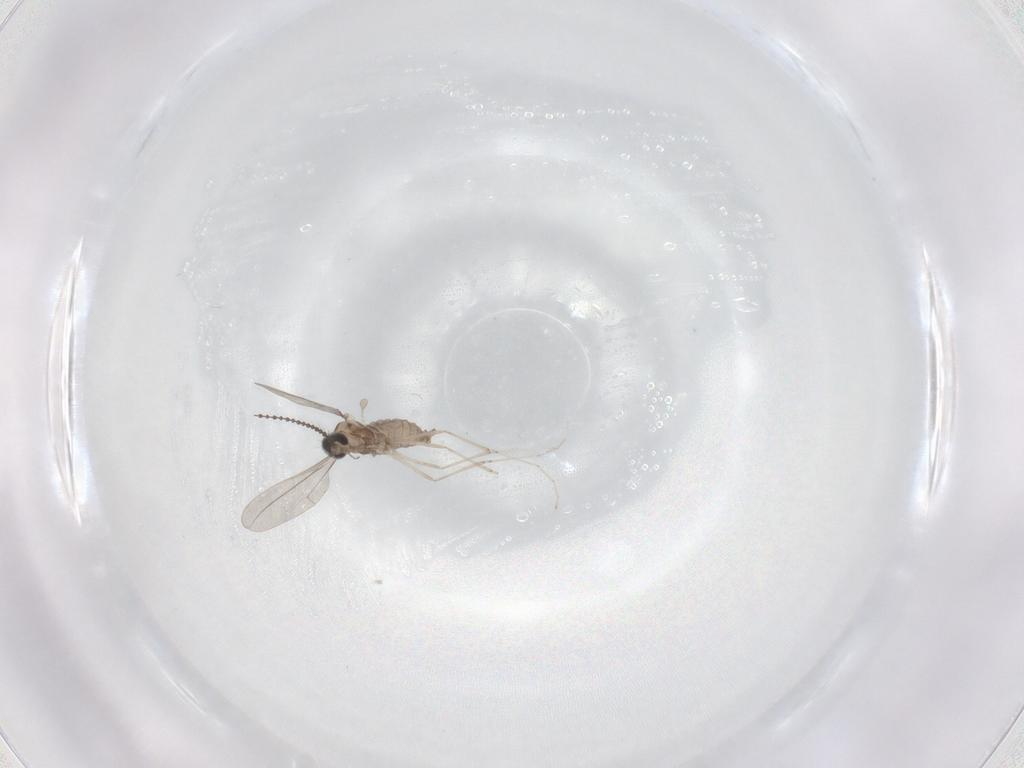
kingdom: Animalia
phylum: Arthropoda
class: Insecta
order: Diptera
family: Cecidomyiidae
